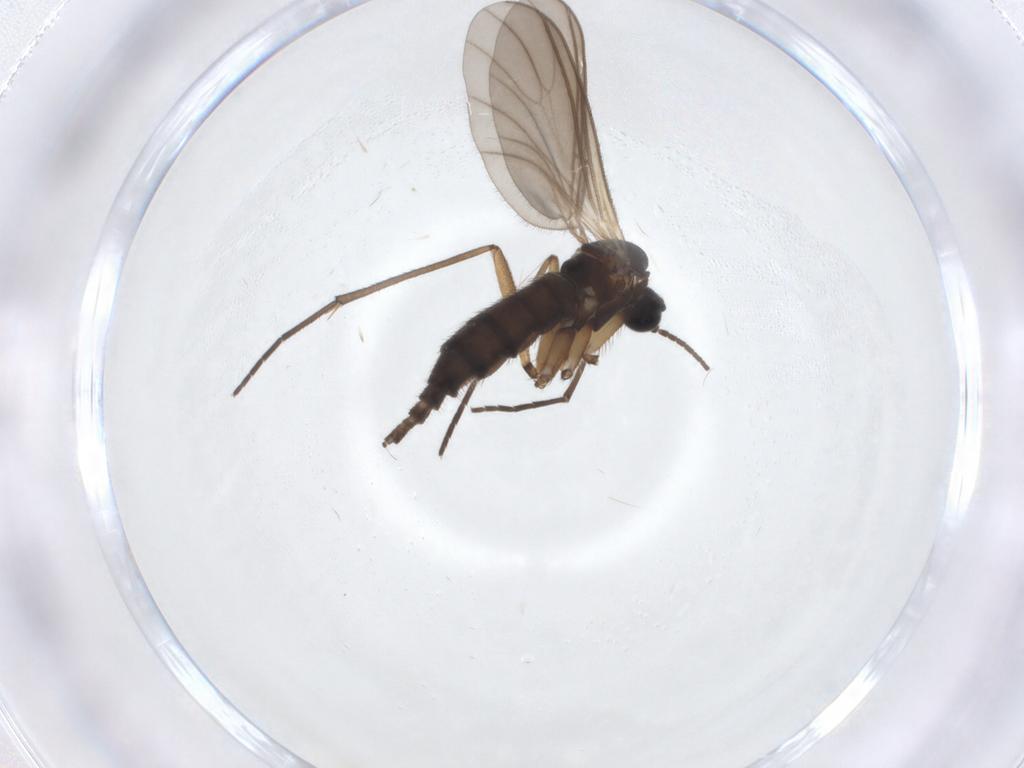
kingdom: Animalia
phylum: Arthropoda
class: Insecta
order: Diptera
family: Sciaridae
